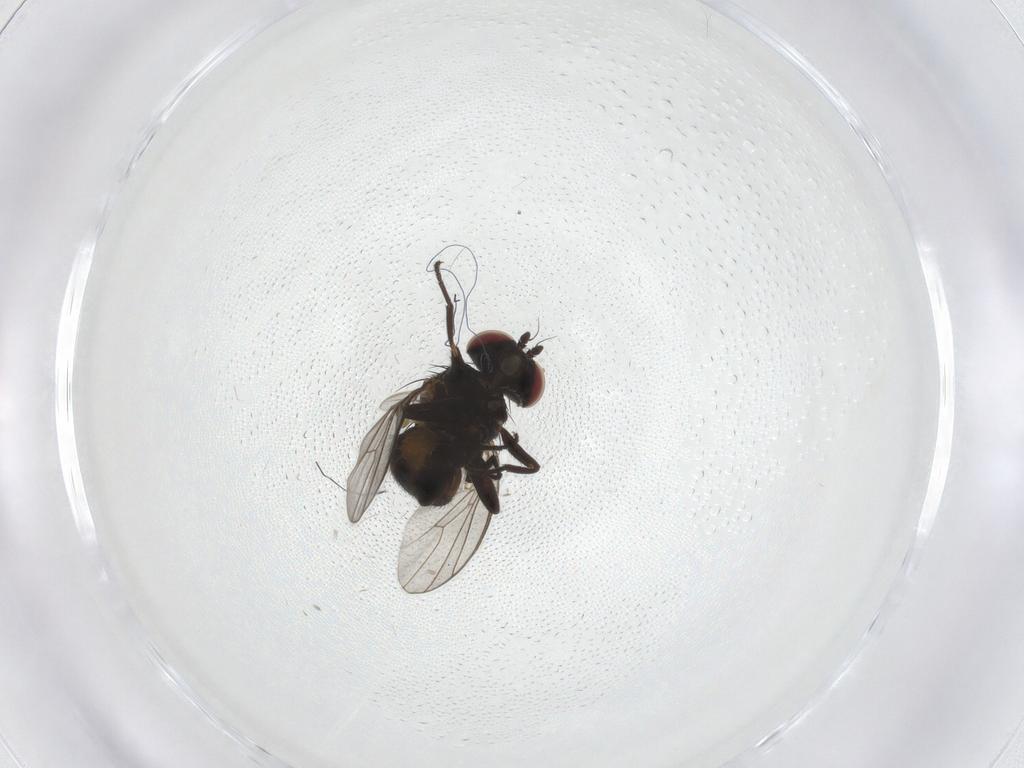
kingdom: Animalia
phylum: Arthropoda
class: Insecta
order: Diptera
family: Agromyzidae
